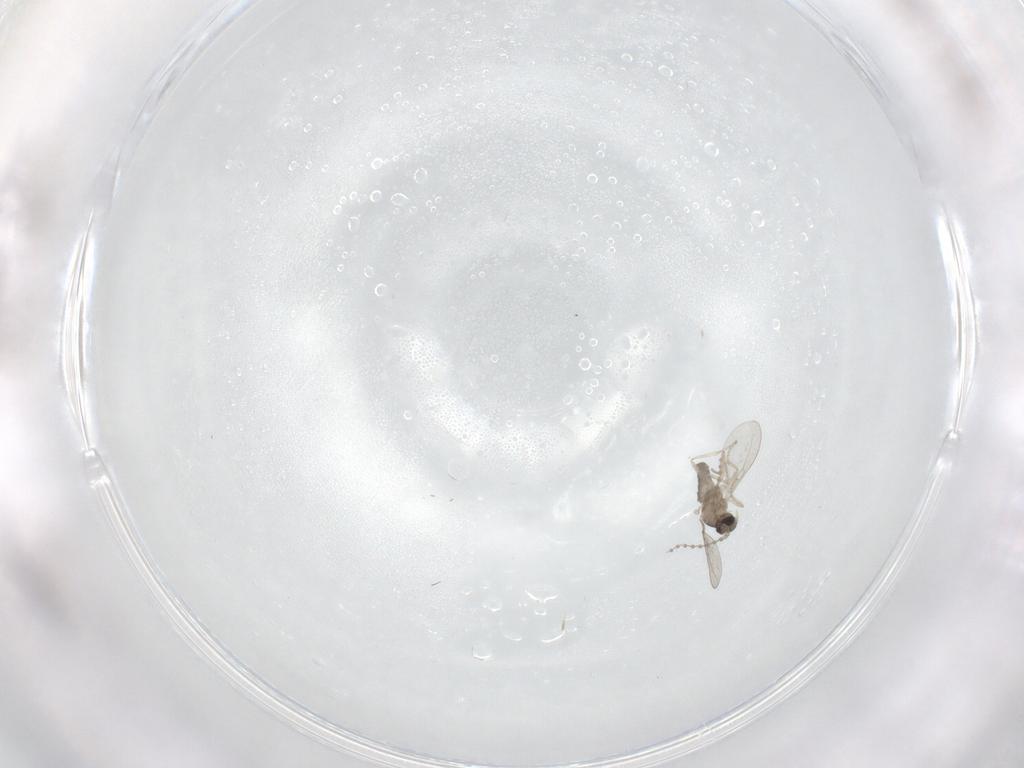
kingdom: Animalia
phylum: Arthropoda
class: Insecta
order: Diptera
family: Cecidomyiidae
